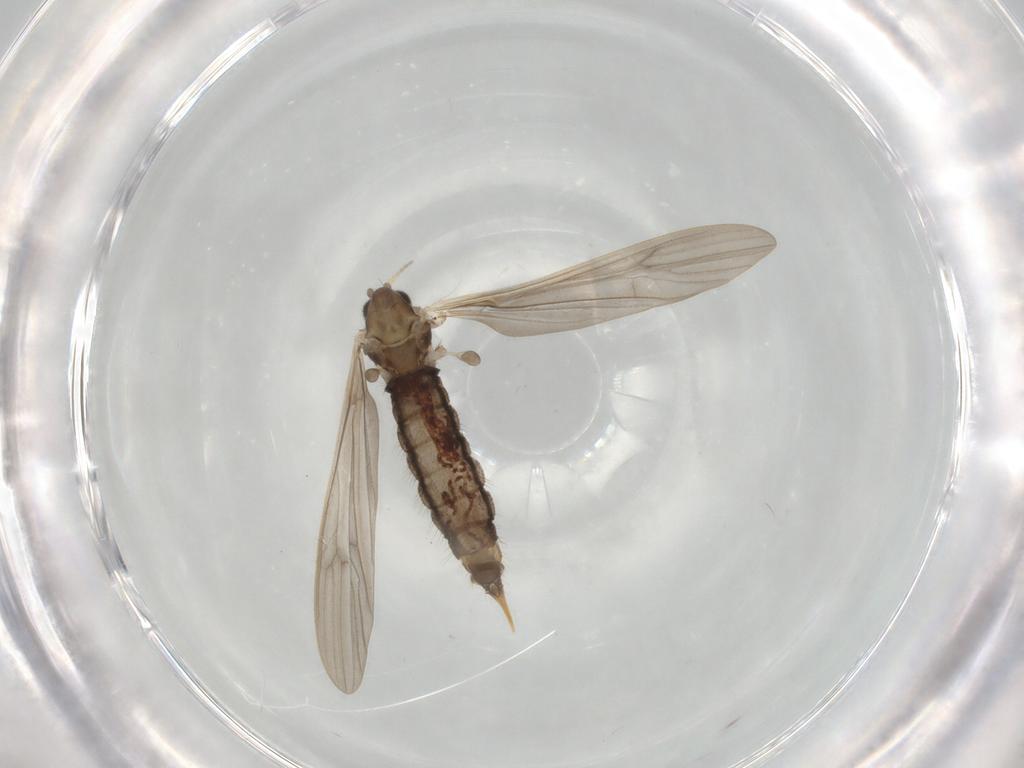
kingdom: Animalia
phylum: Arthropoda
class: Insecta
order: Diptera
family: Limoniidae
